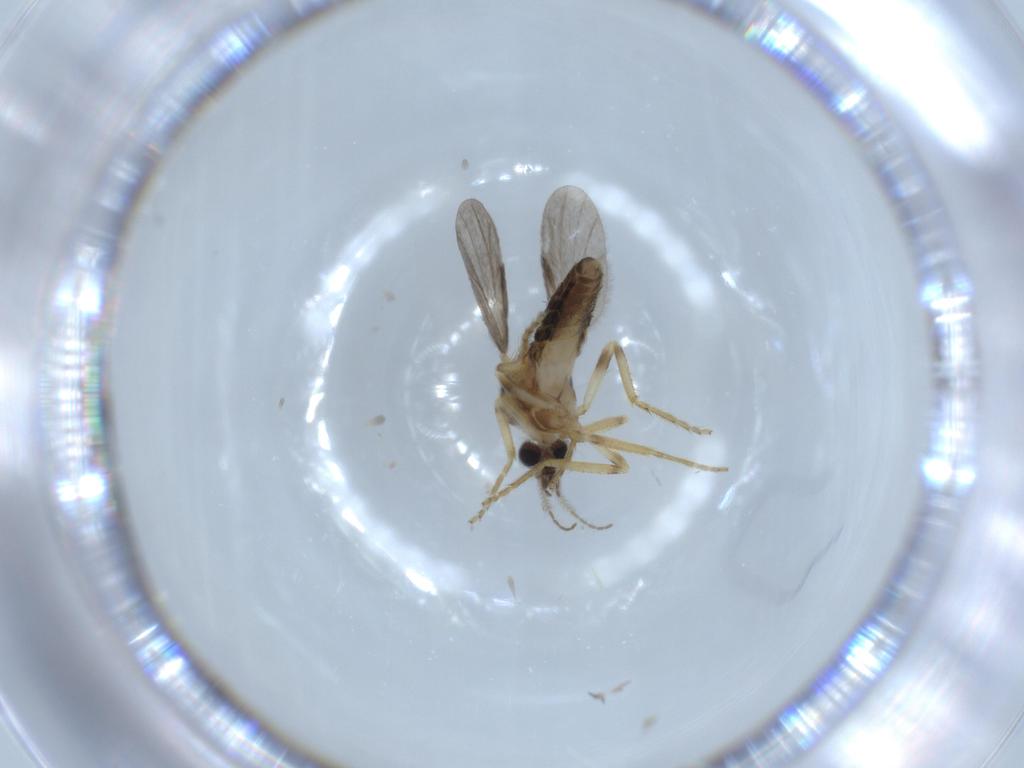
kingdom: Animalia
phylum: Arthropoda
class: Insecta
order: Diptera
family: Ceratopogonidae
